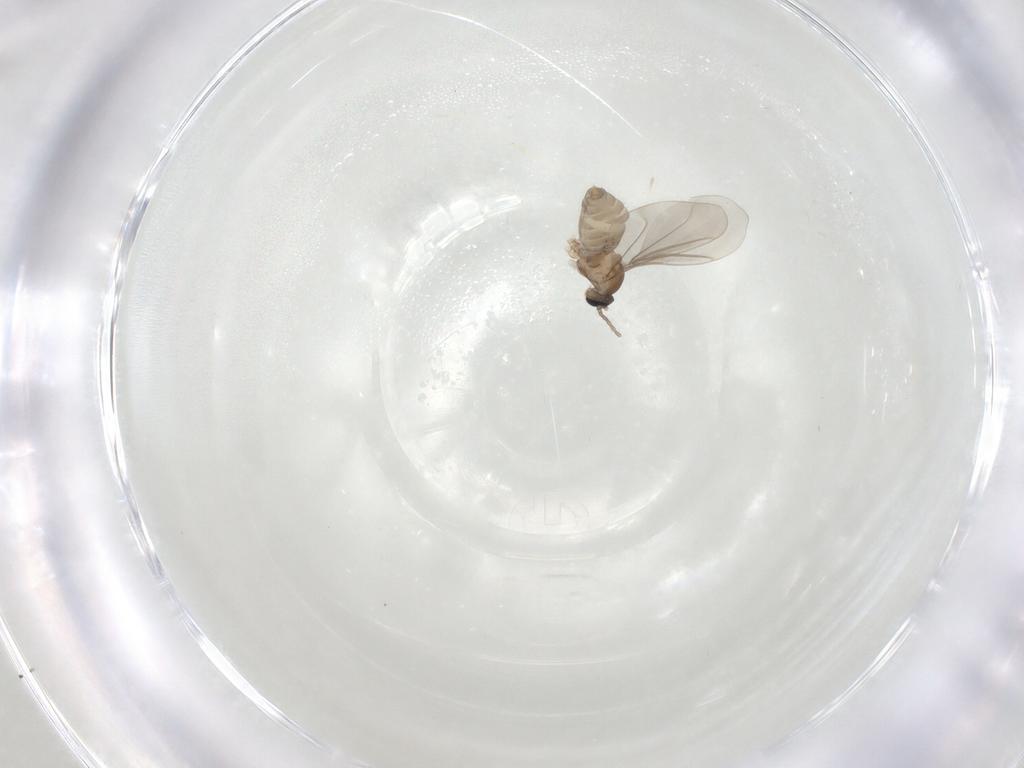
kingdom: Animalia
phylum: Arthropoda
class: Insecta
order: Diptera
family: Cecidomyiidae
